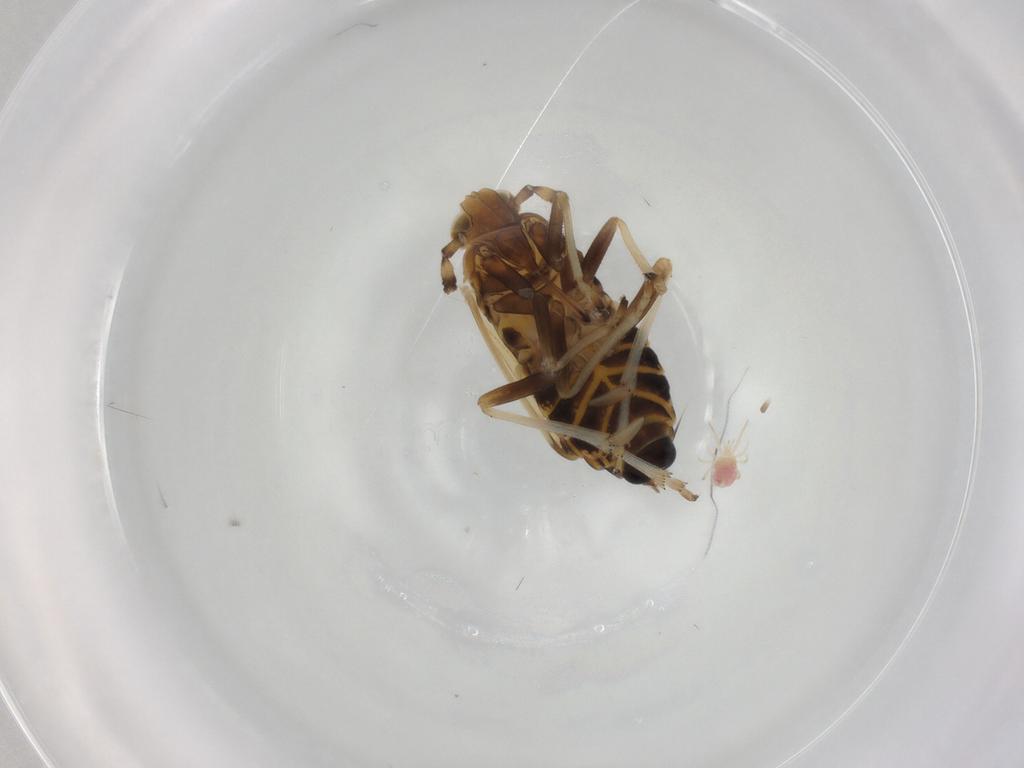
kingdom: Animalia
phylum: Arthropoda
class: Insecta
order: Hemiptera
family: Delphacidae
